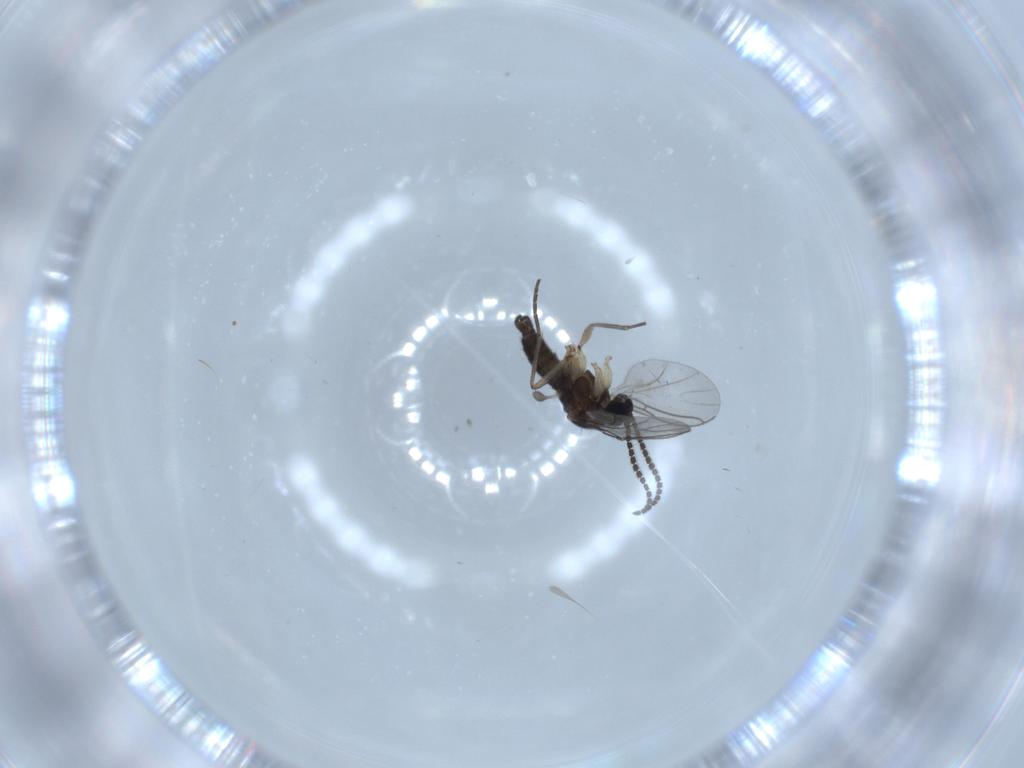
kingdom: Animalia
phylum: Arthropoda
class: Insecta
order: Diptera
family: Sciaridae
